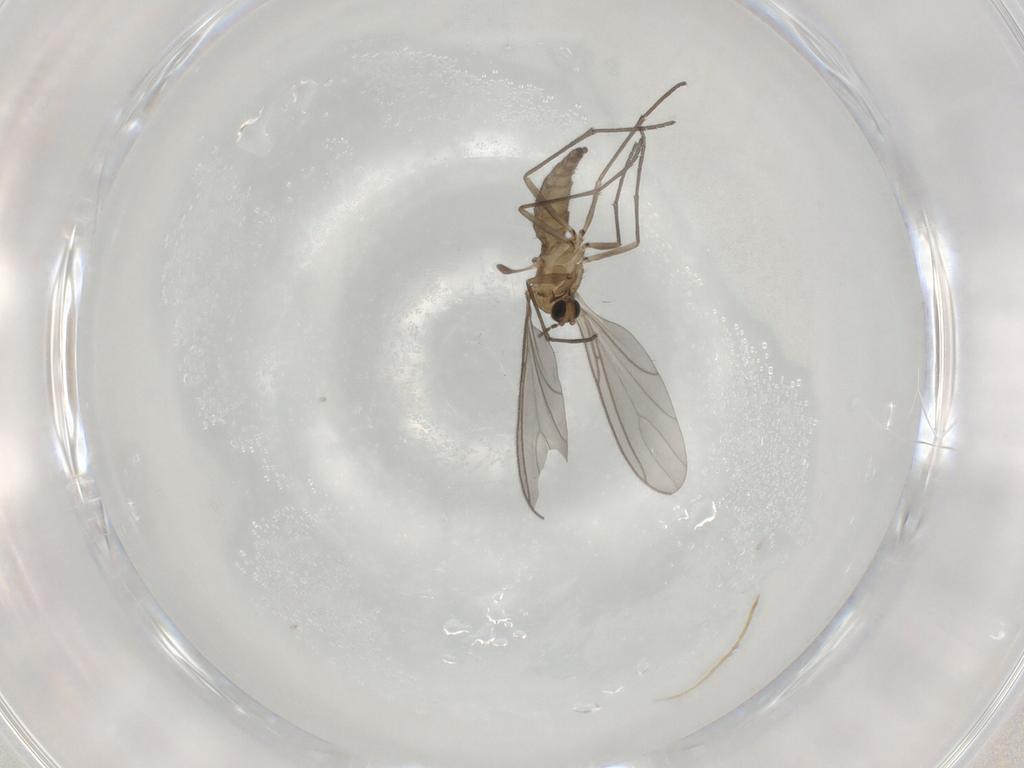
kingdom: Animalia
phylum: Arthropoda
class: Insecta
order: Diptera
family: Sciaridae
